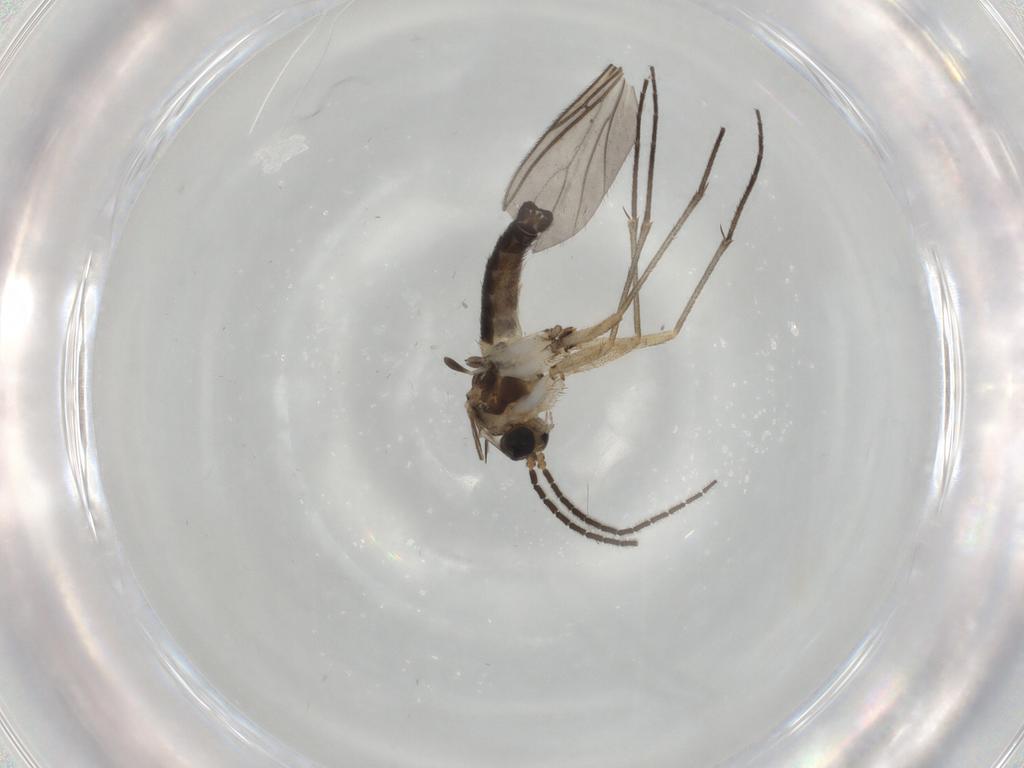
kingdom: Animalia
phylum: Arthropoda
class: Insecta
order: Diptera
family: Sciaridae
